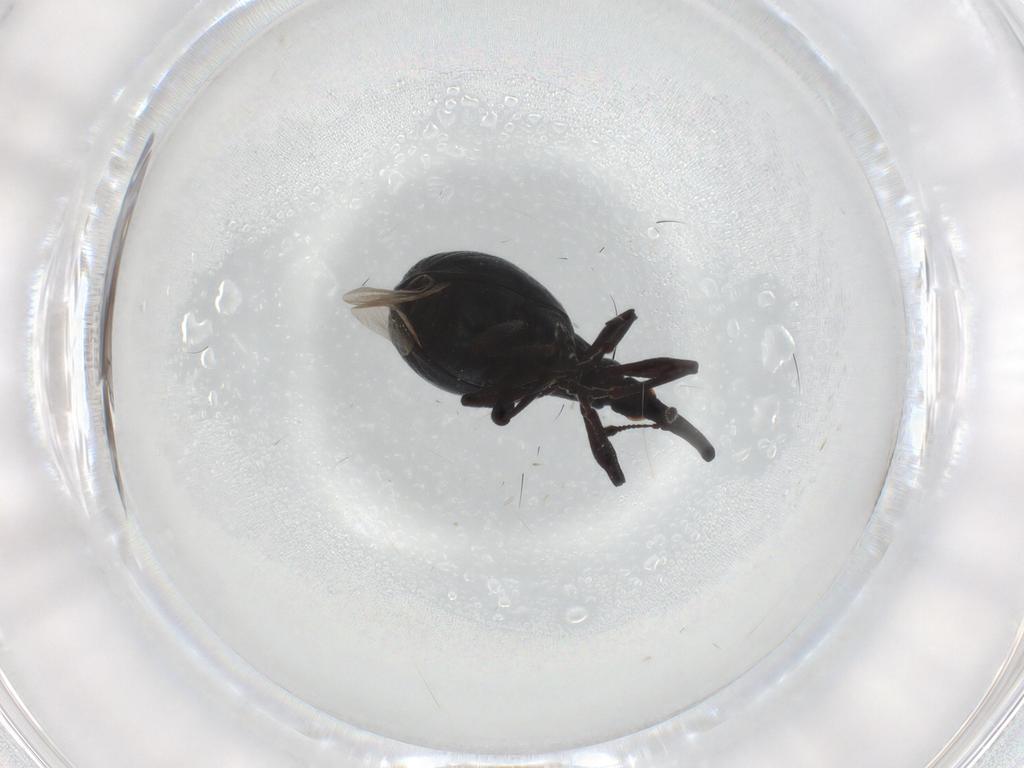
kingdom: Animalia
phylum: Arthropoda
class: Insecta
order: Coleoptera
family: Brentidae
